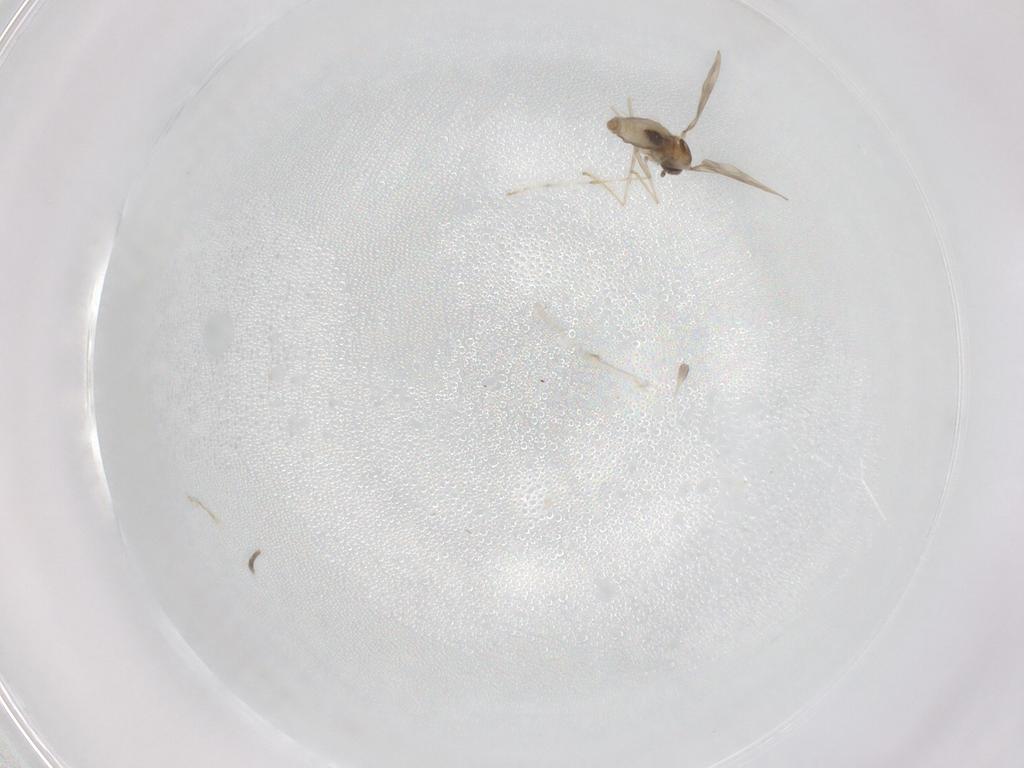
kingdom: Animalia
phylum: Arthropoda
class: Insecta
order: Diptera
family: Cecidomyiidae
